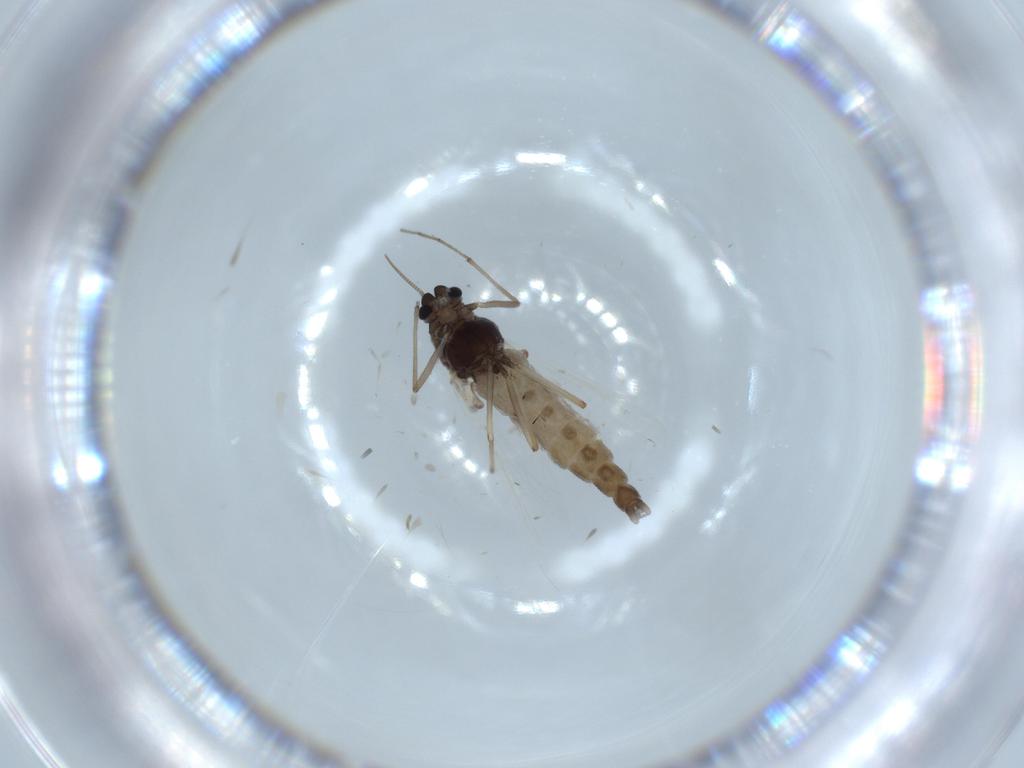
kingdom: Animalia
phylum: Arthropoda
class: Insecta
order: Diptera
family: Chironomidae
